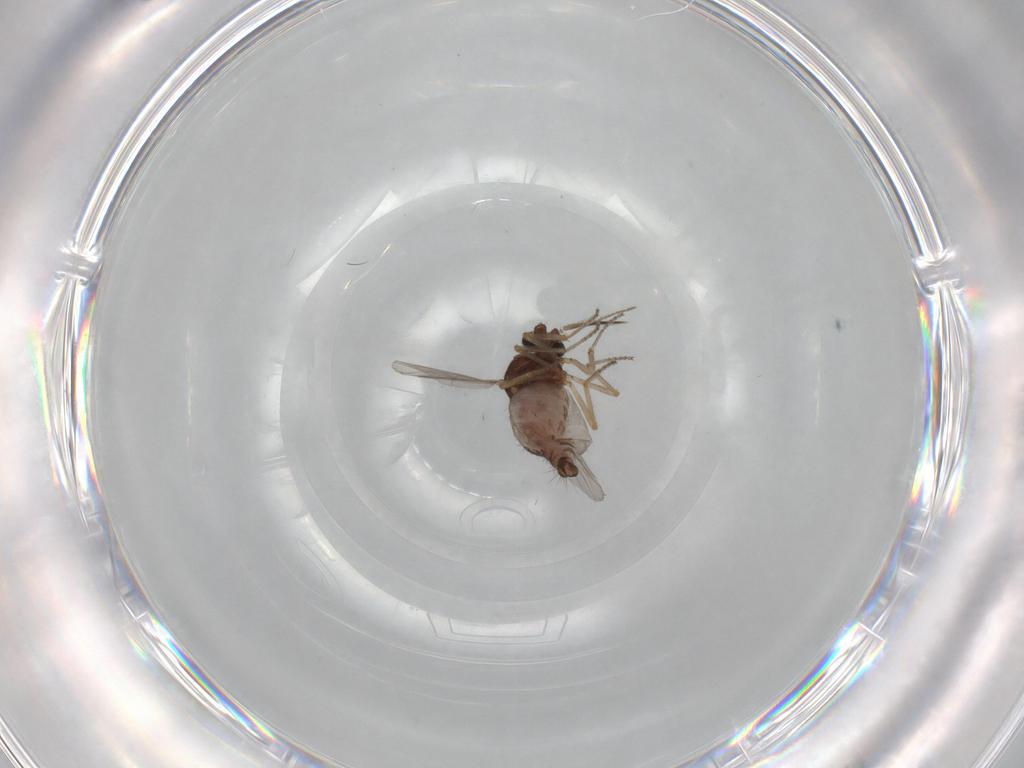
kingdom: Animalia
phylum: Arthropoda
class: Insecta
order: Diptera
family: Ceratopogonidae
